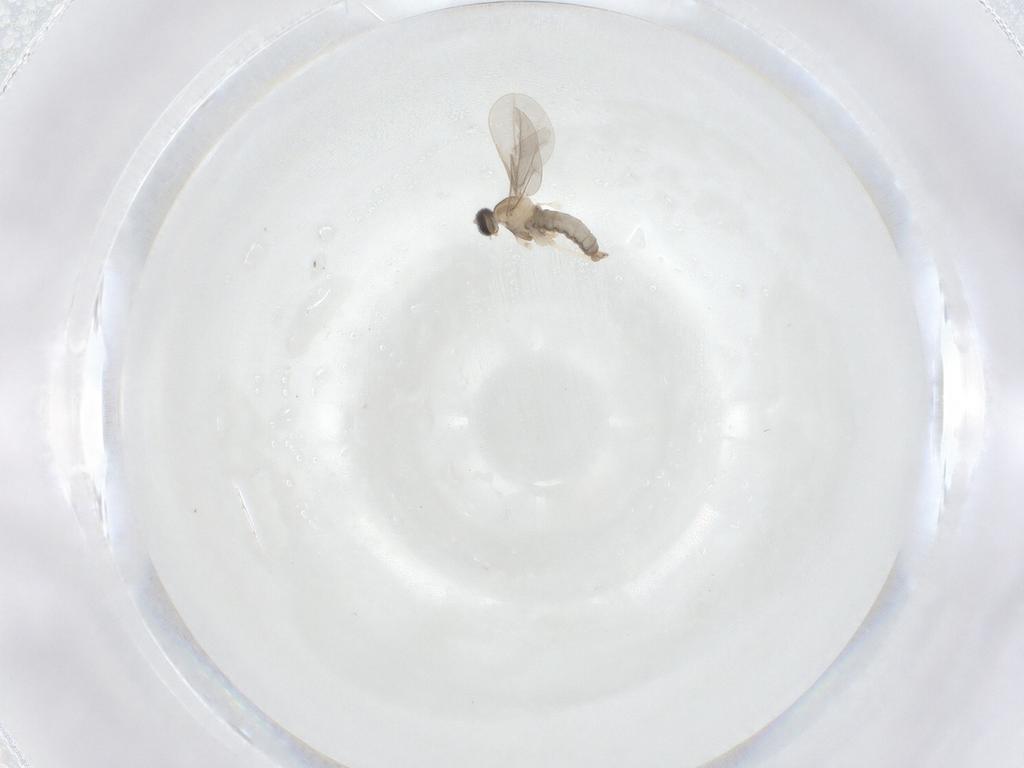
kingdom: Animalia
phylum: Arthropoda
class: Insecta
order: Diptera
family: Cecidomyiidae
